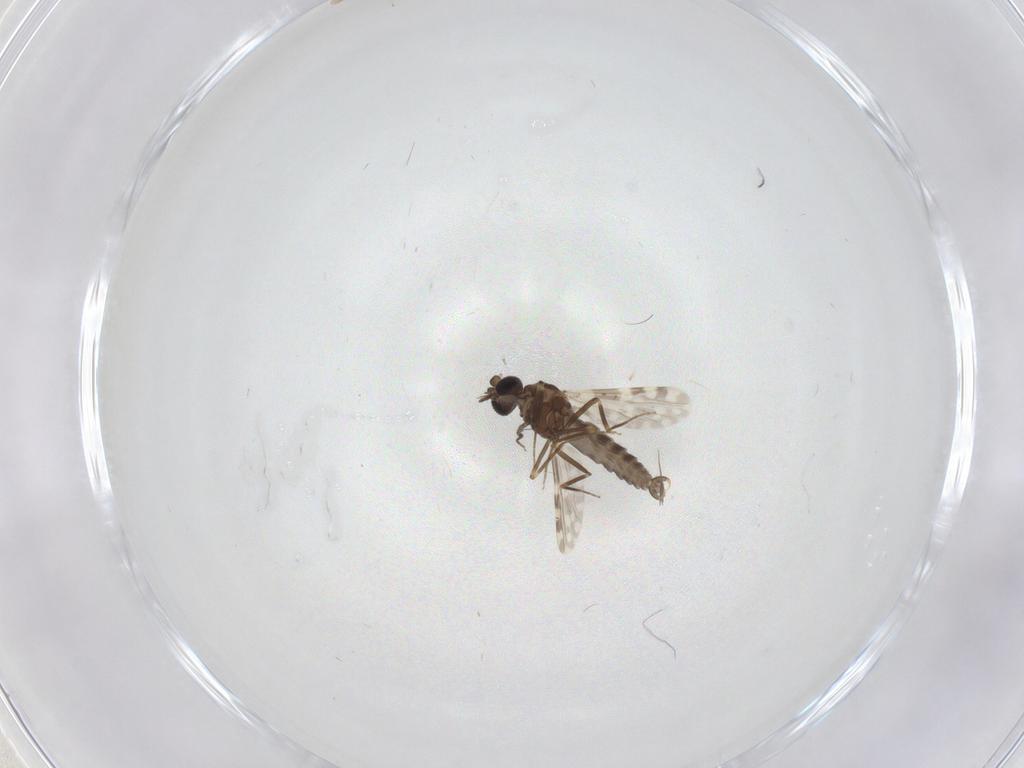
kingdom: Animalia
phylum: Arthropoda
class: Insecta
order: Diptera
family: Ceratopogonidae
